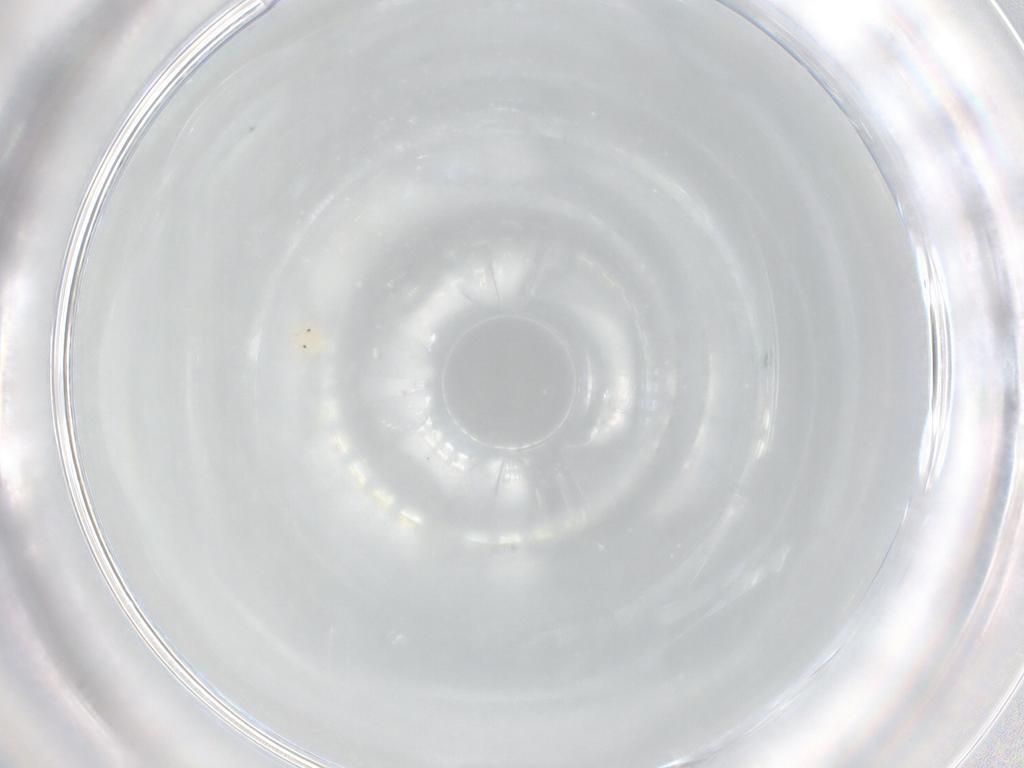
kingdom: Animalia
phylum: Arthropoda
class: Arachnida
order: Trombidiformes
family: Sperchontidae
